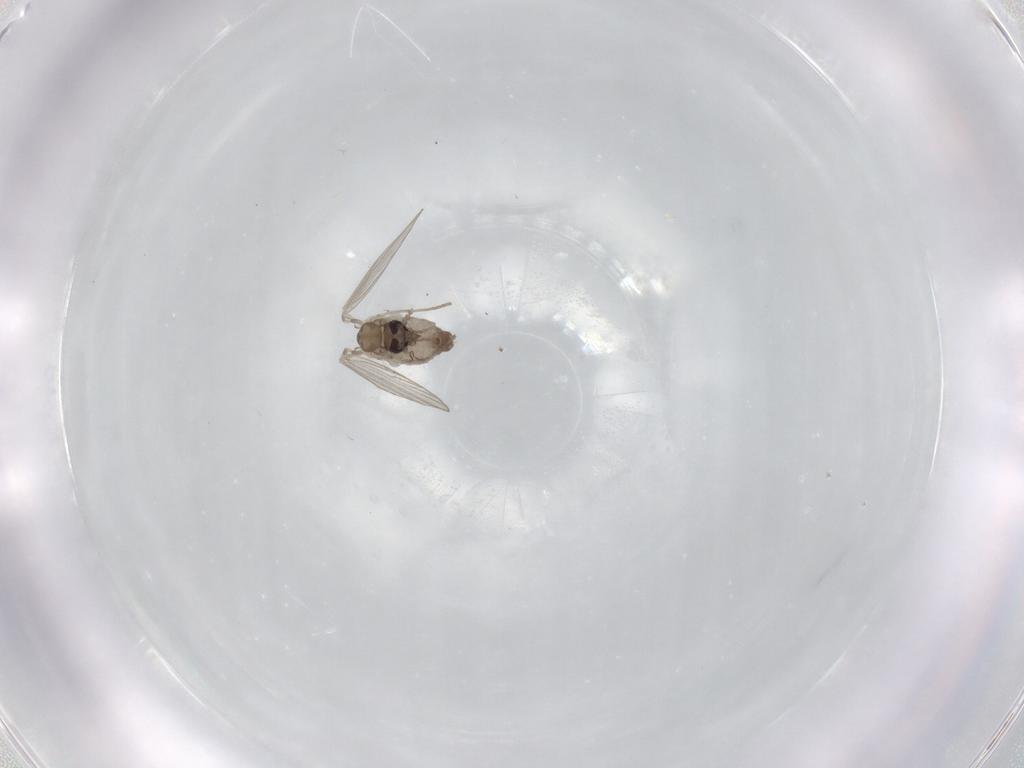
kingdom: Animalia
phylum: Arthropoda
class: Insecta
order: Diptera
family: Psychodidae
